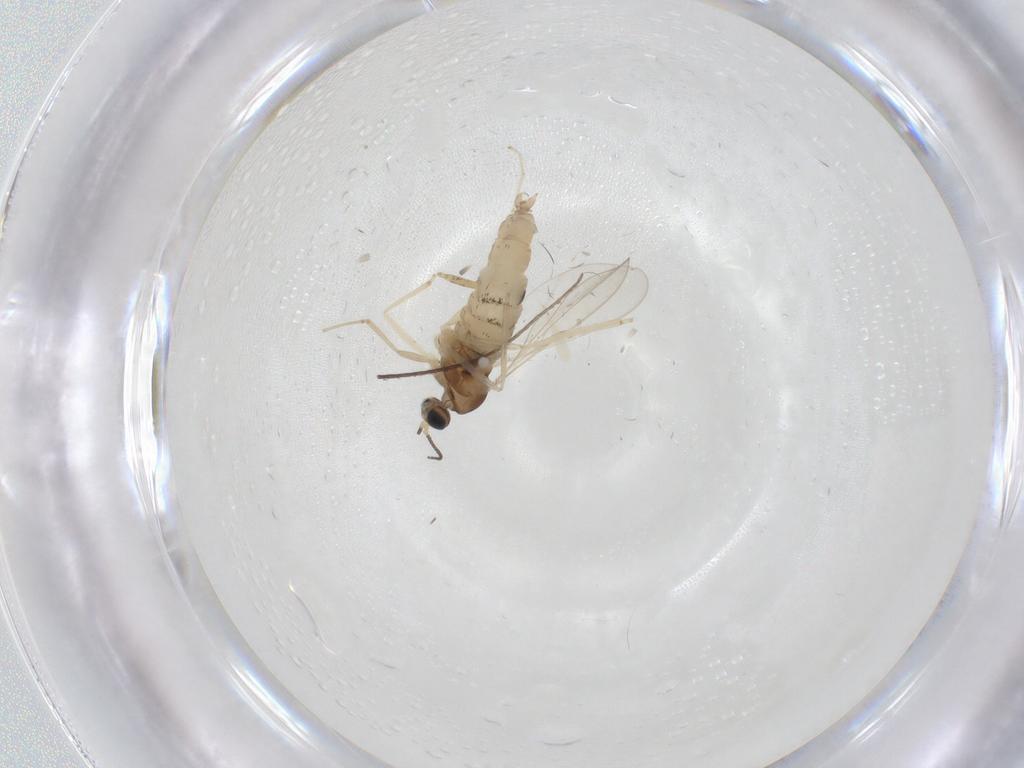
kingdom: Animalia
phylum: Arthropoda
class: Insecta
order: Diptera
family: Cecidomyiidae
